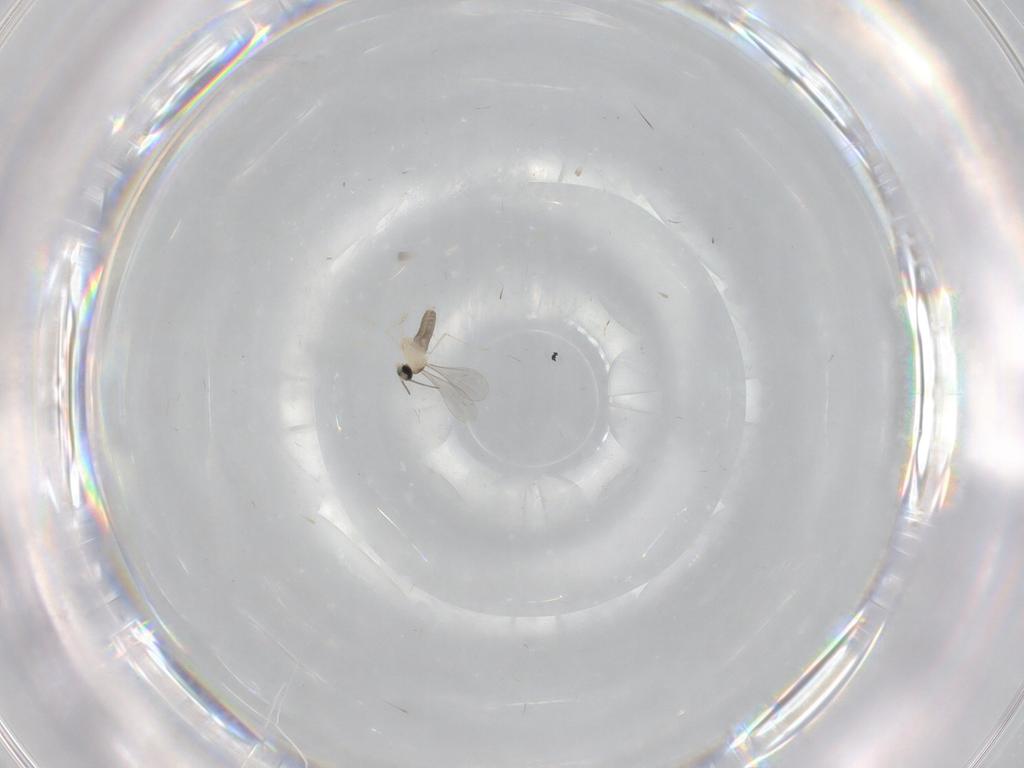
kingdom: Animalia
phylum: Arthropoda
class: Insecta
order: Diptera
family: Cecidomyiidae
